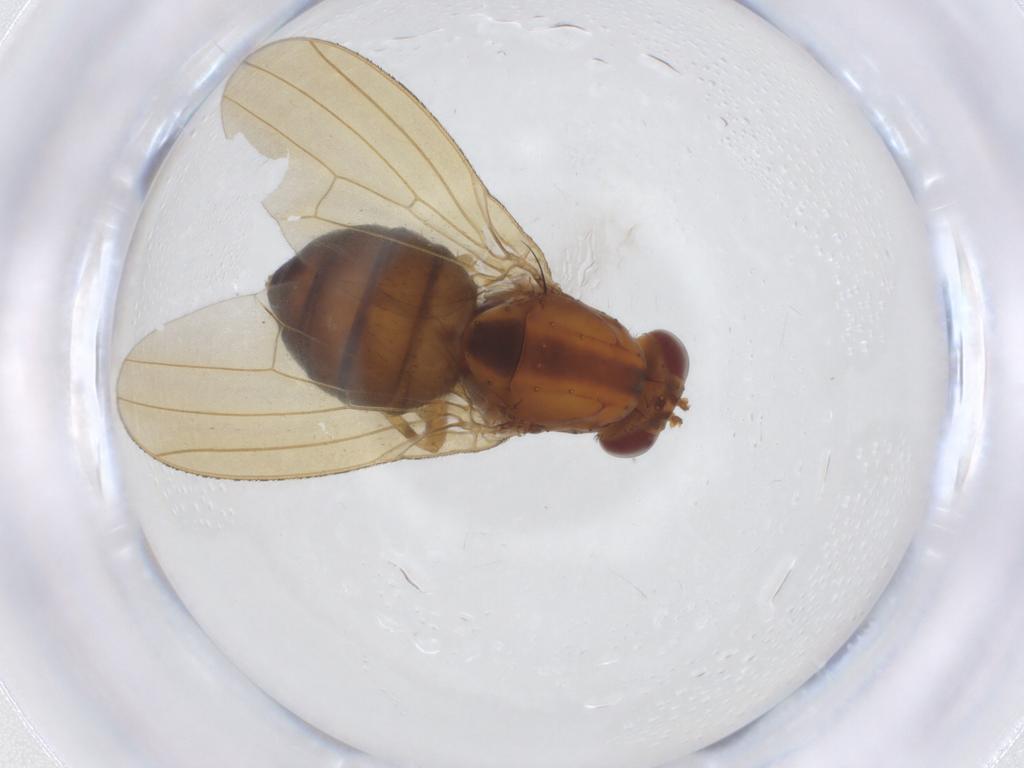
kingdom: Animalia
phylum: Arthropoda
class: Insecta
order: Diptera
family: Lauxaniidae
